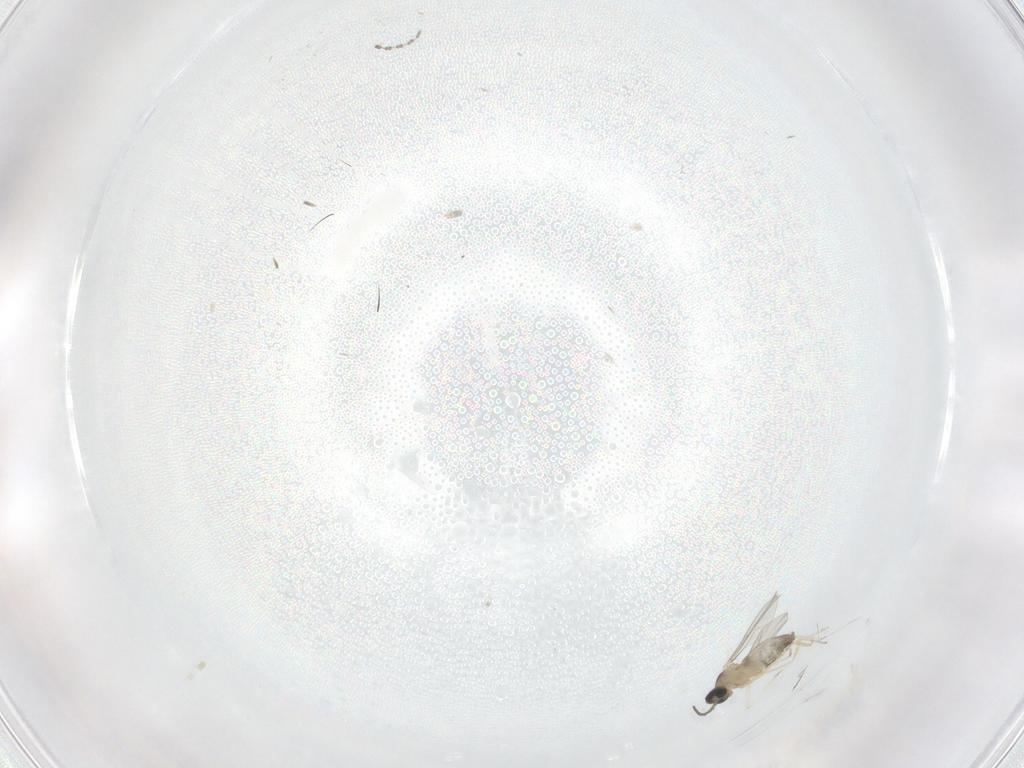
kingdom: Animalia
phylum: Arthropoda
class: Insecta
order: Diptera
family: Cecidomyiidae
